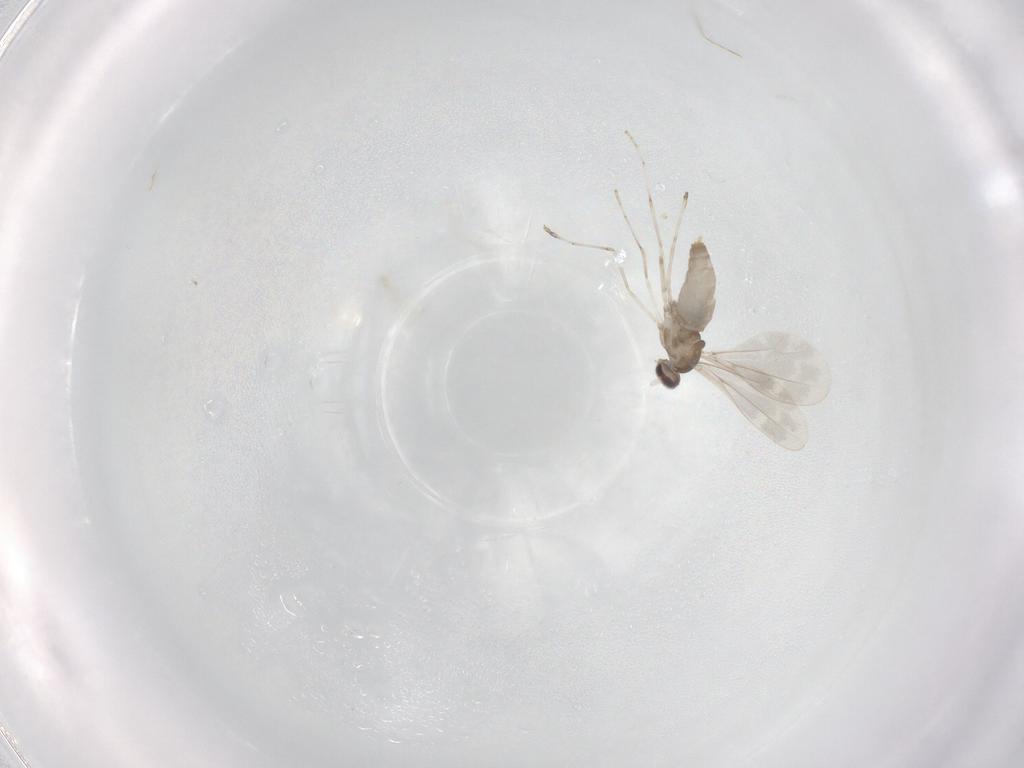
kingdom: Animalia
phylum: Arthropoda
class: Insecta
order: Diptera
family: Cecidomyiidae
